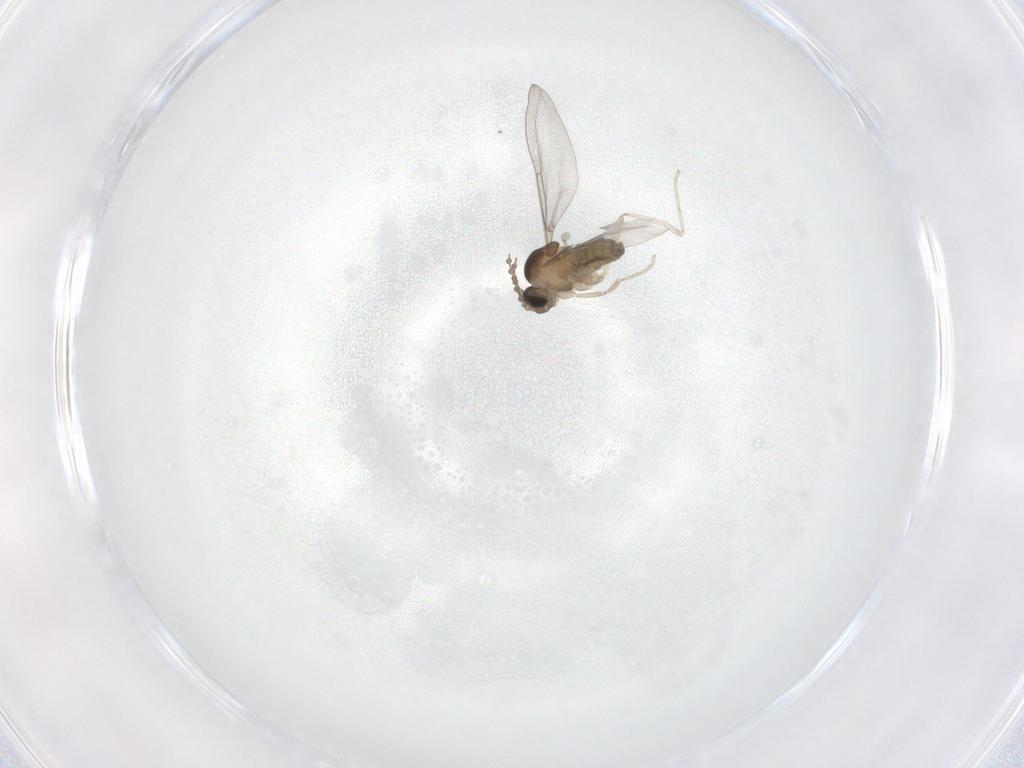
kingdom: Animalia
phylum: Arthropoda
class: Insecta
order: Diptera
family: Cecidomyiidae
